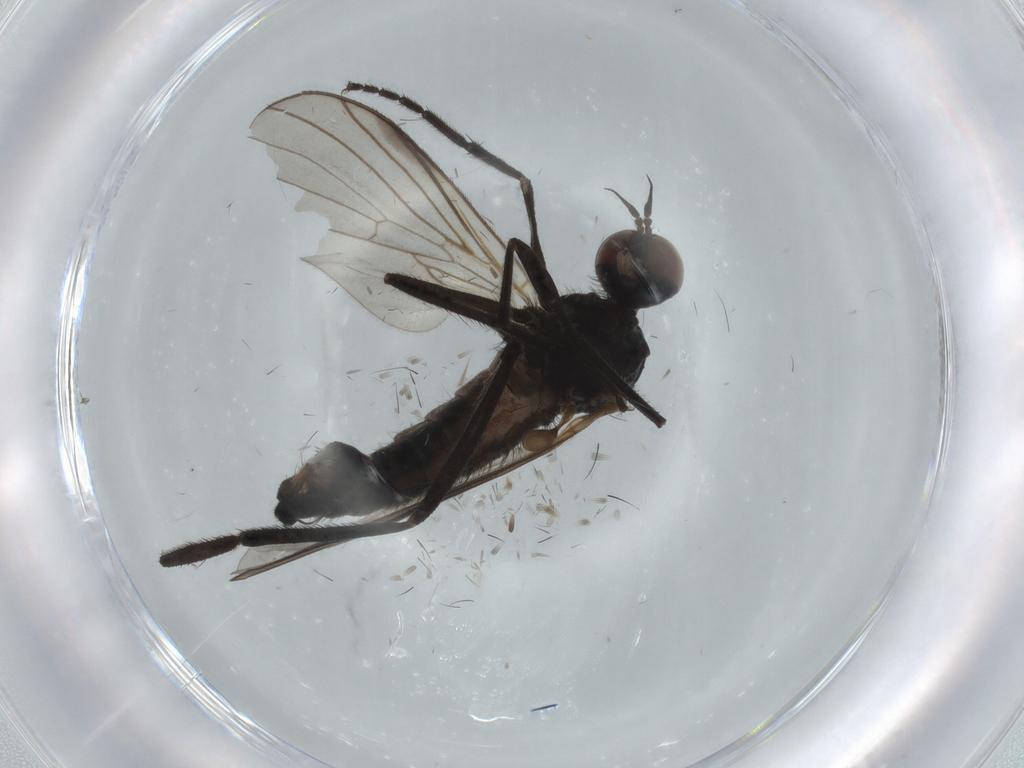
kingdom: Animalia
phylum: Arthropoda
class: Insecta
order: Diptera
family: Empididae
